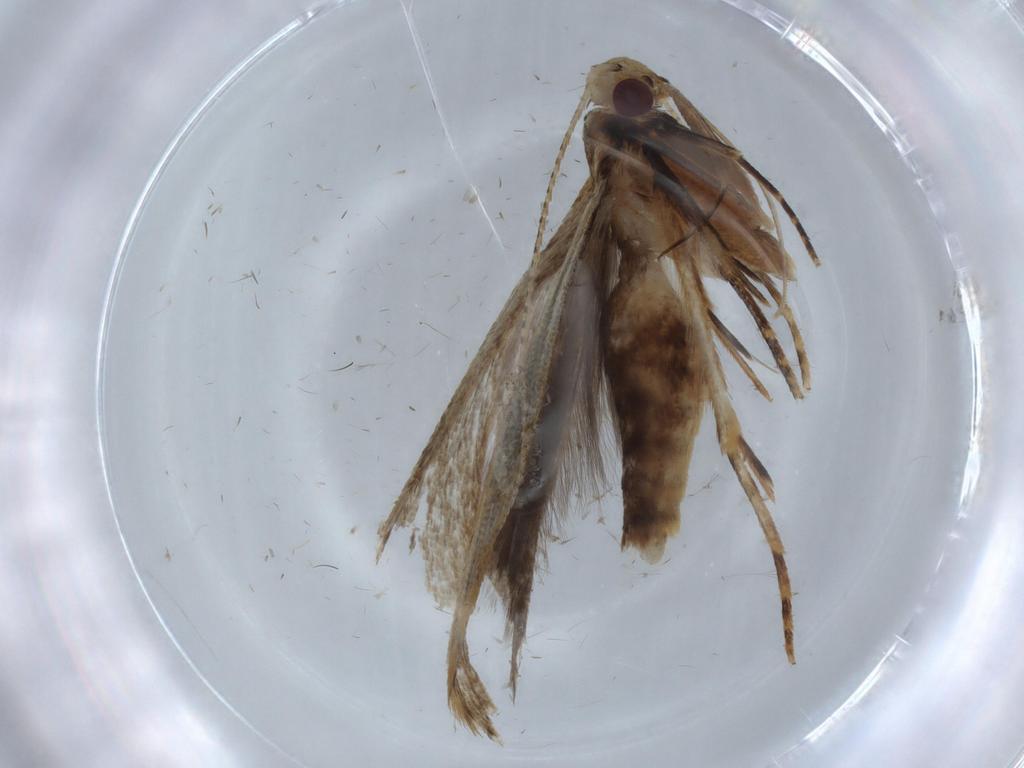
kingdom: Animalia
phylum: Arthropoda
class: Insecta
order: Lepidoptera
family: Gelechiidae
